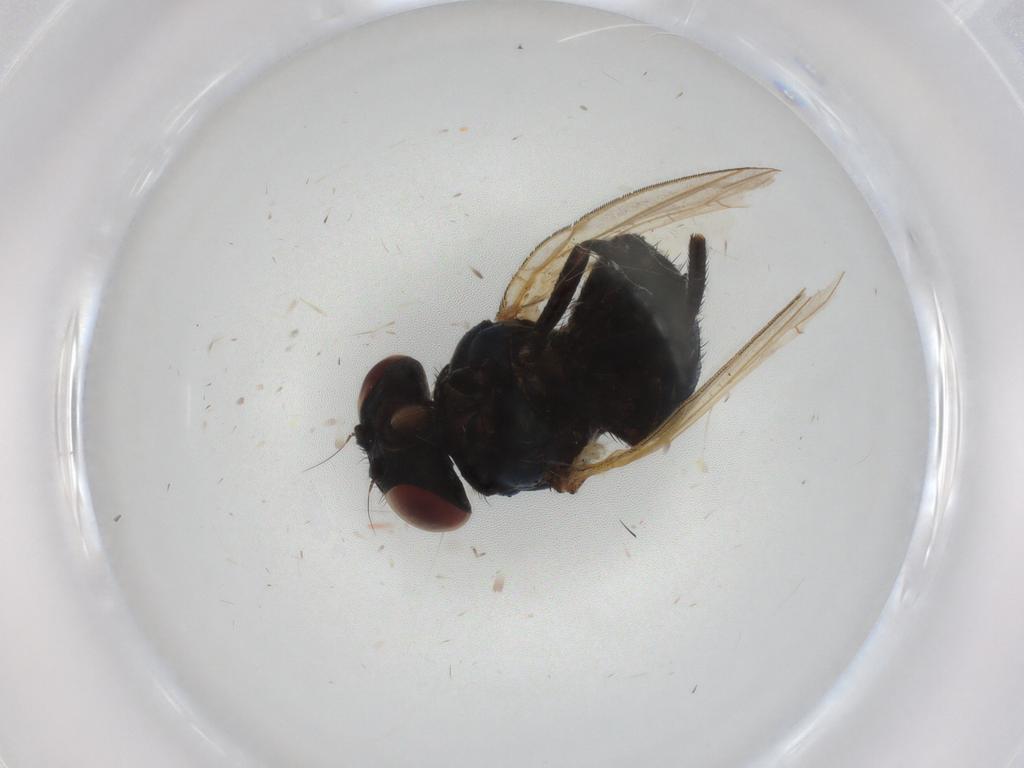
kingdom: Animalia
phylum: Arthropoda
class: Insecta
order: Diptera
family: Phoridae
